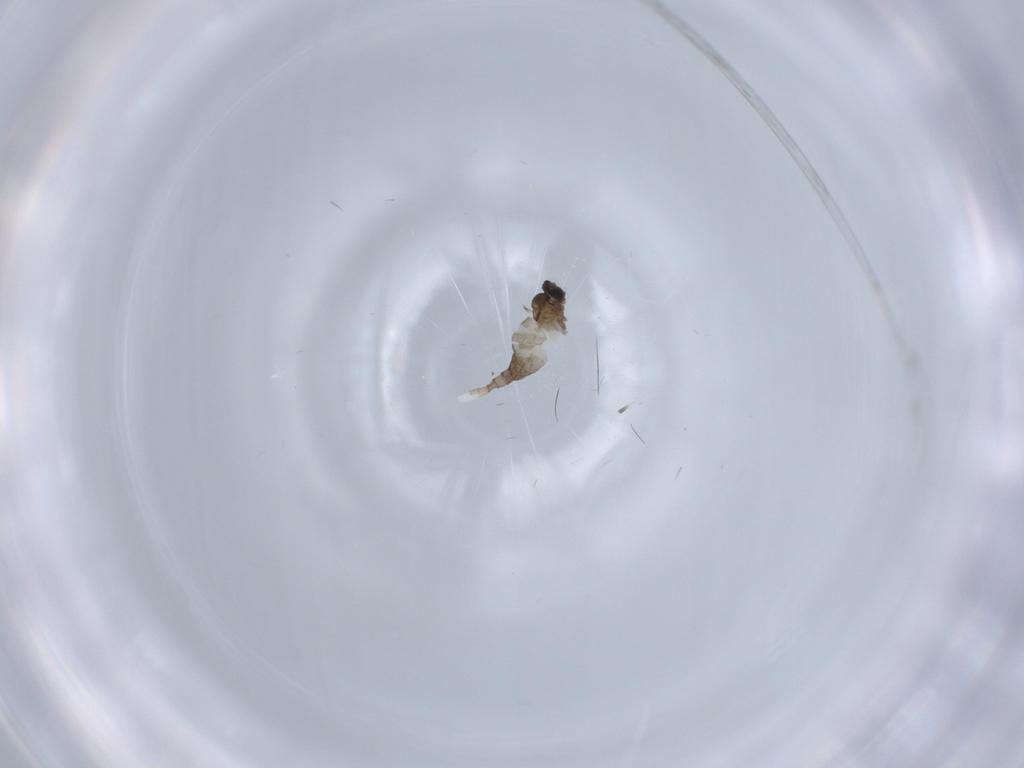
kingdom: Animalia
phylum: Arthropoda
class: Insecta
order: Diptera
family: Cecidomyiidae
